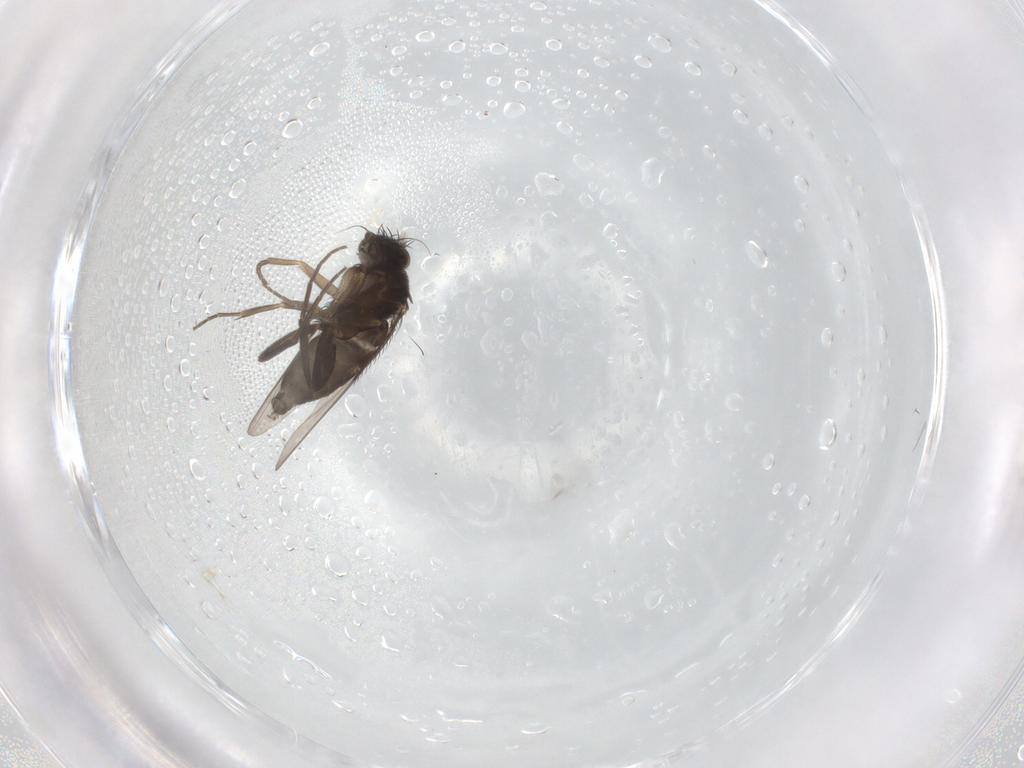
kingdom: Animalia
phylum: Arthropoda
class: Insecta
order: Diptera
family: Phoridae
